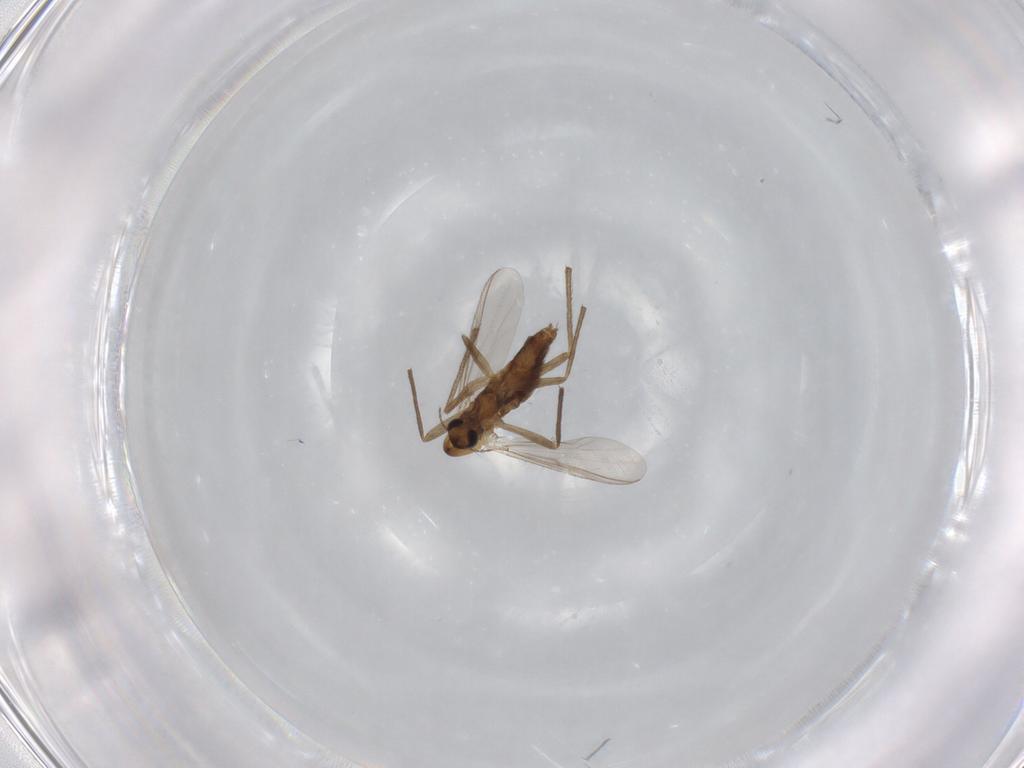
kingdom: Animalia
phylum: Arthropoda
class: Insecta
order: Diptera
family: Chironomidae
